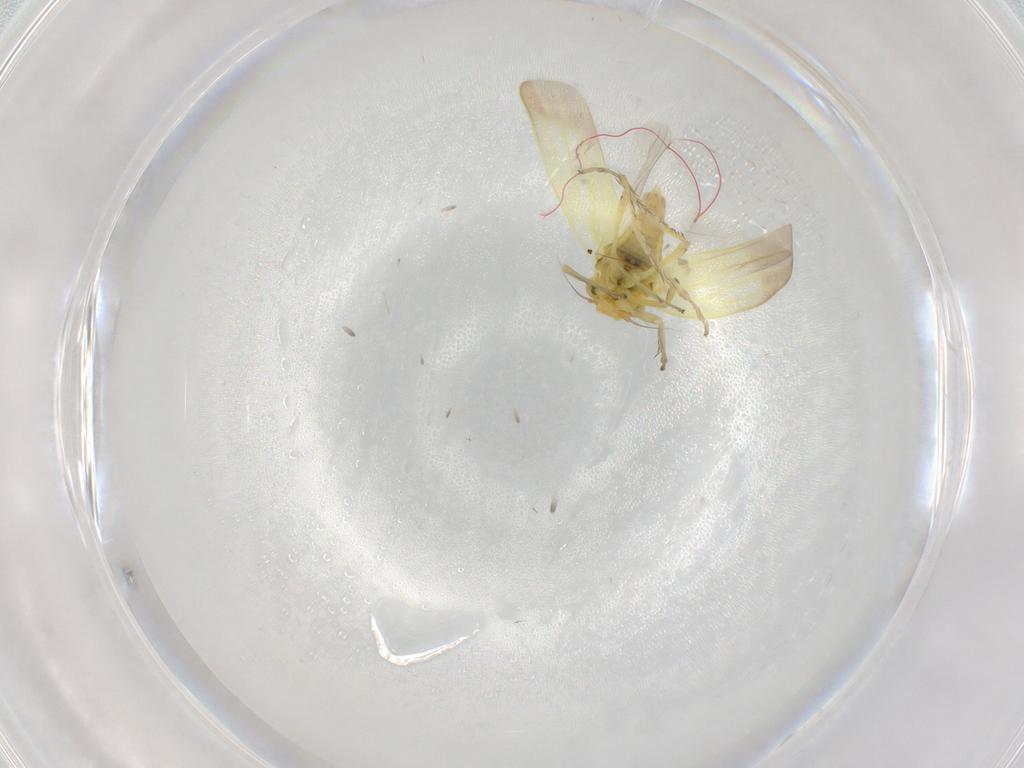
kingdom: Animalia
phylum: Arthropoda
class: Insecta
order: Hemiptera
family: Cicadellidae
